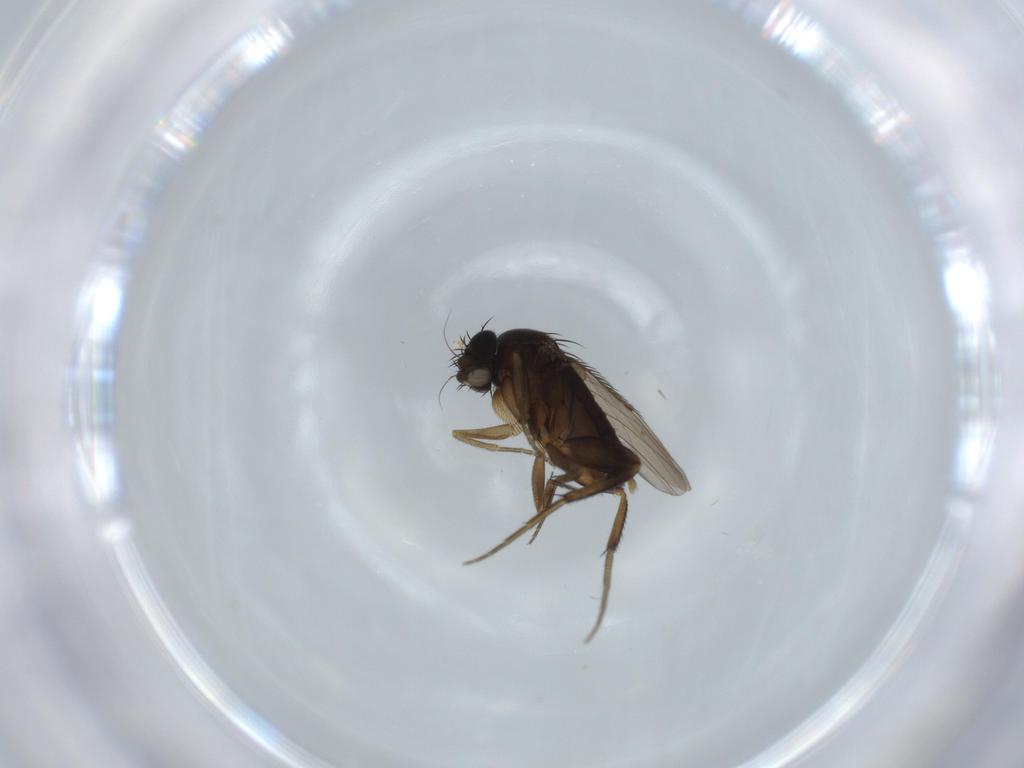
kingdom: Animalia
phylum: Arthropoda
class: Insecta
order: Diptera
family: Phoridae
